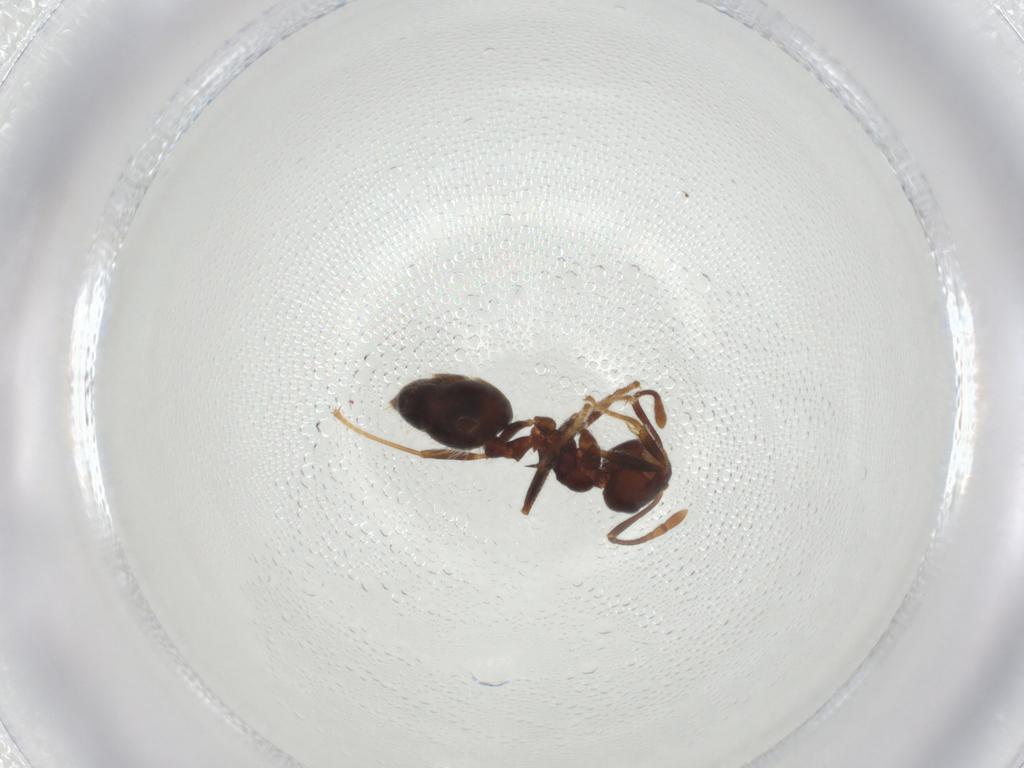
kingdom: Animalia
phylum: Arthropoda
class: Insecta
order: Hymenoptera
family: Formicidae
